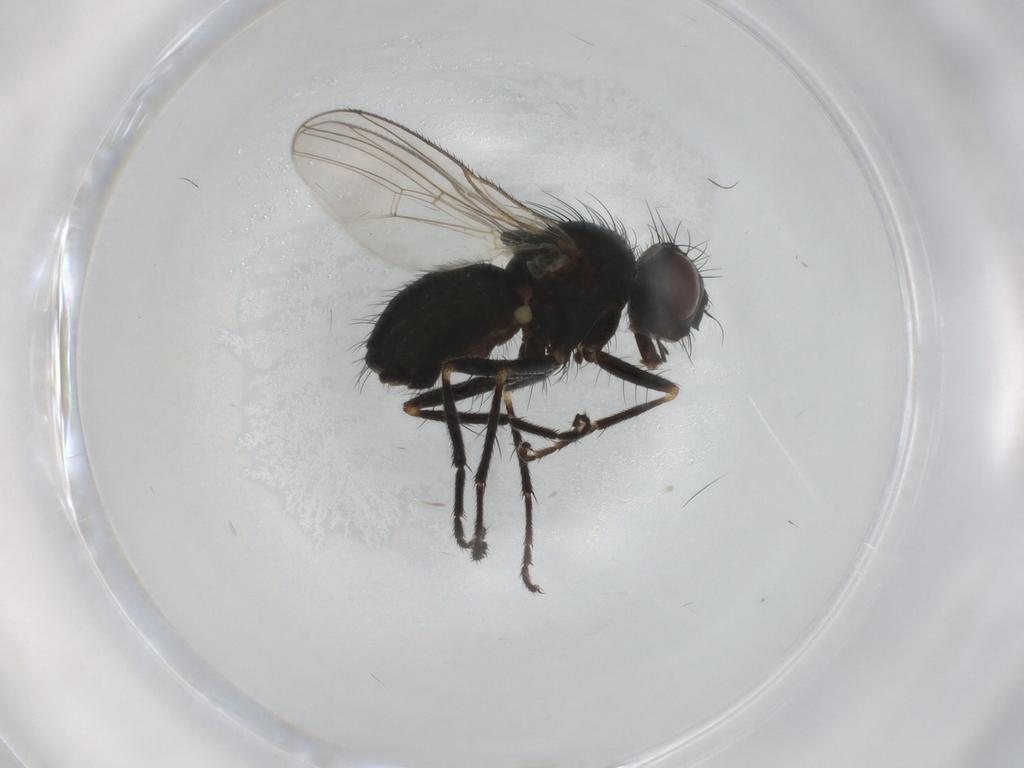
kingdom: Animalia
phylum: Arthropoda
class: Insecta
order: Diptera
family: Muscidae
